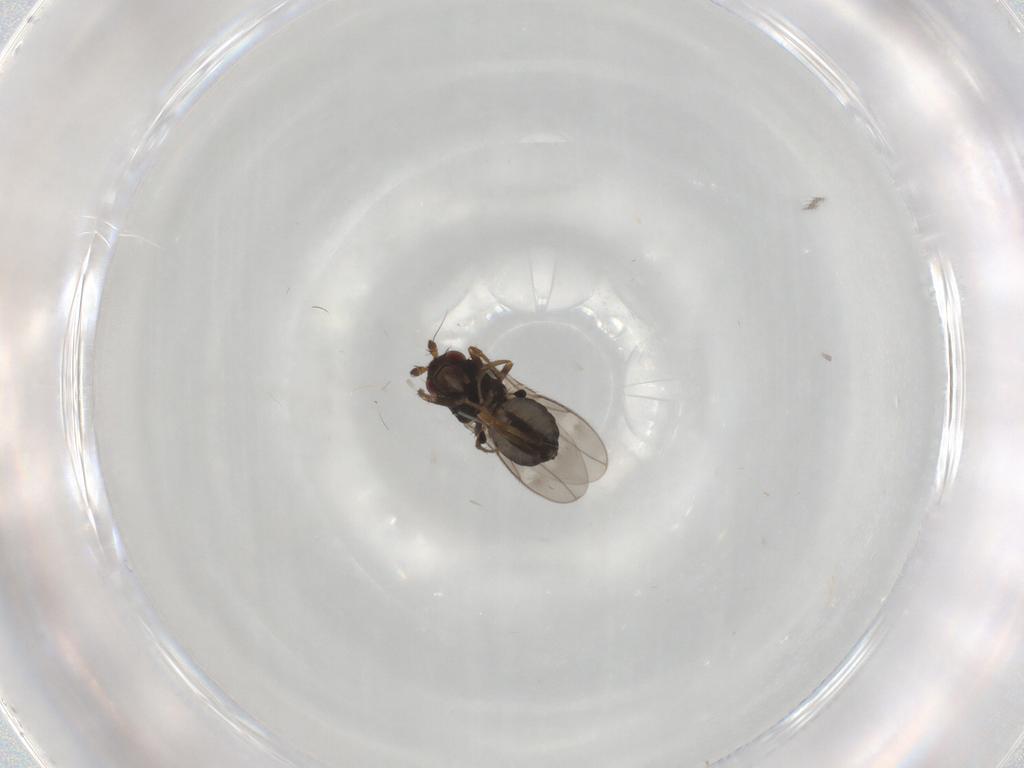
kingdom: Animalia
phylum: Arthropoda
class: Insecta
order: Diptera
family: Sphaeroceridae
